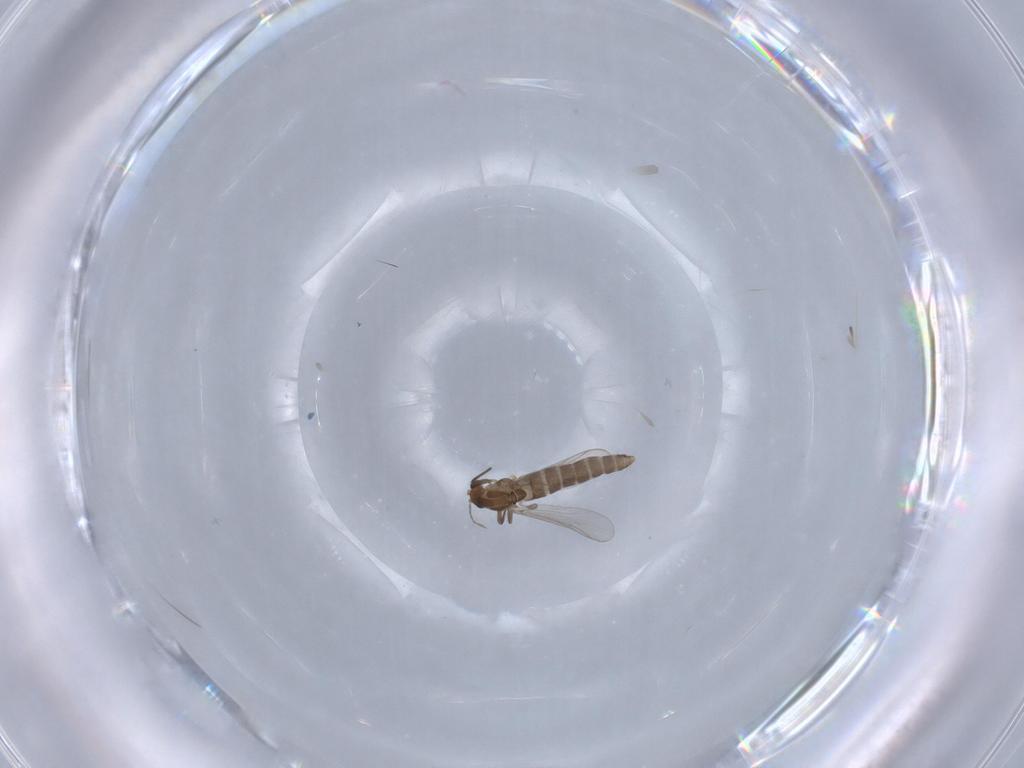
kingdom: Animalia
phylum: Arthropoda
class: Insecta
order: Diptera
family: Chironomidae
